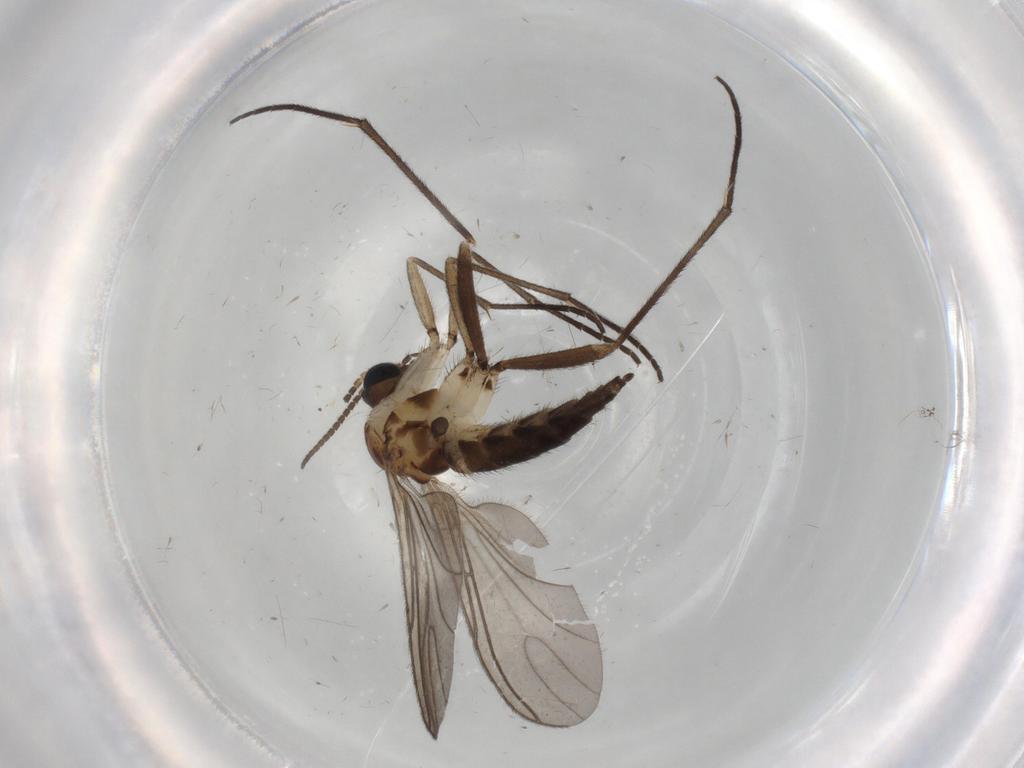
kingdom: Animalia
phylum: Arthropoda
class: Insecta
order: Diptera
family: Sciaridae
